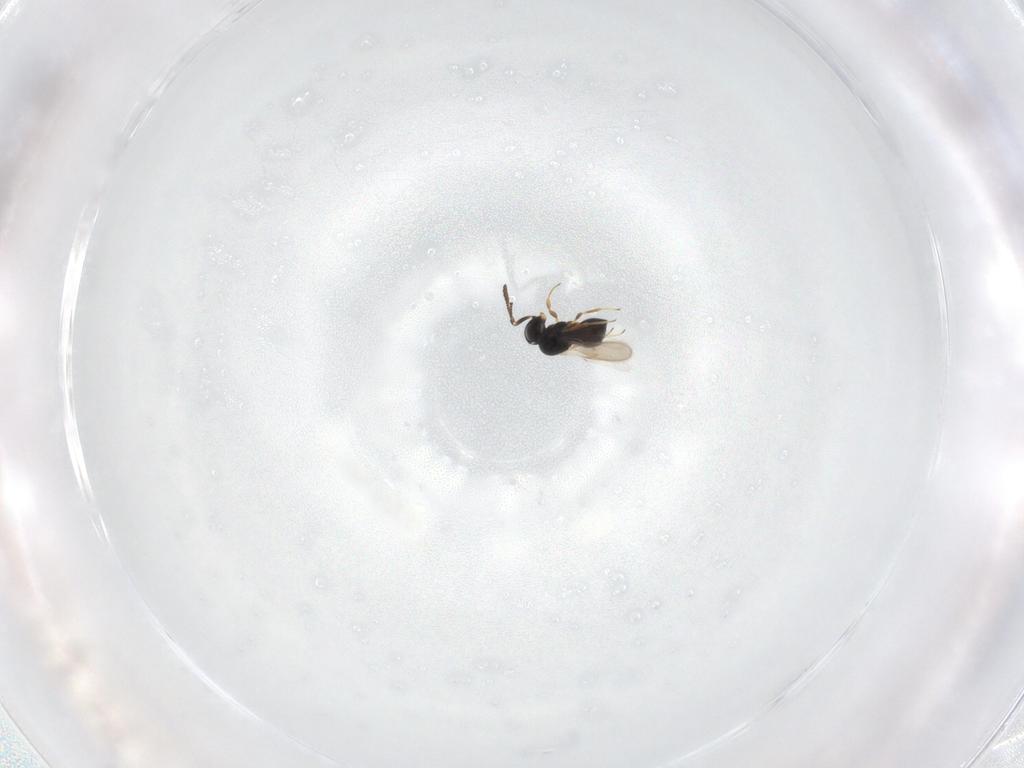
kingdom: Animalia
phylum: Arthropoda
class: Insecta
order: Hymenoptera
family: Scelionidae
